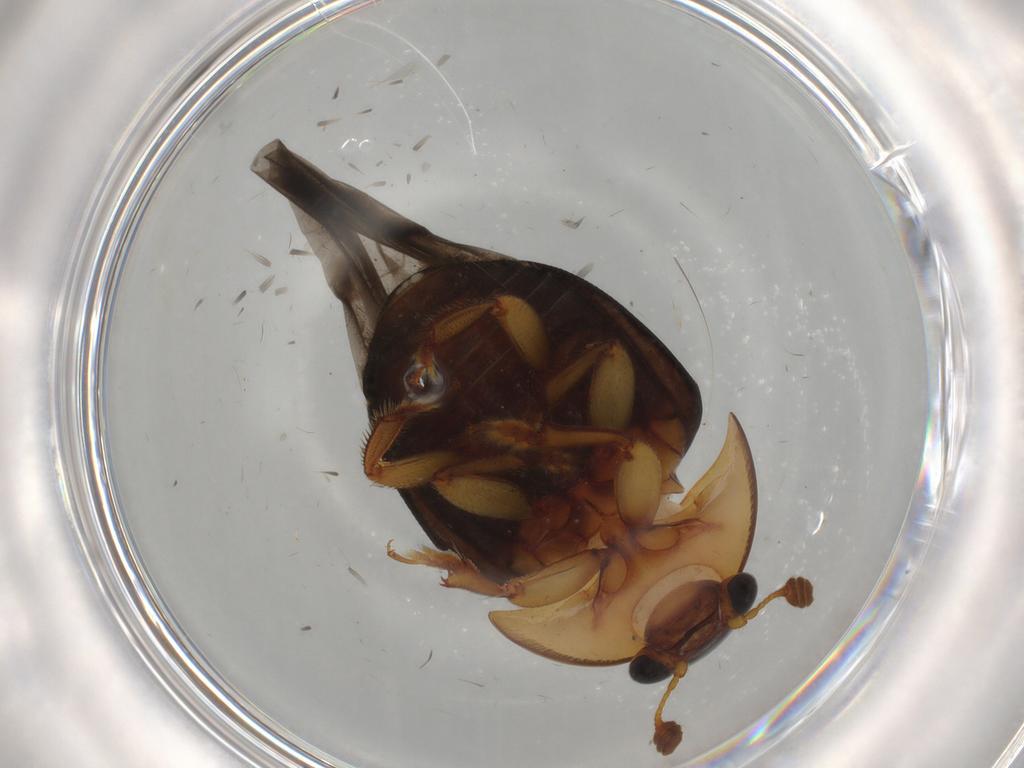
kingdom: Animalia
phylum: Arthropoda
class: Insecta
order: Coleoptera
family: Nitidulidae
